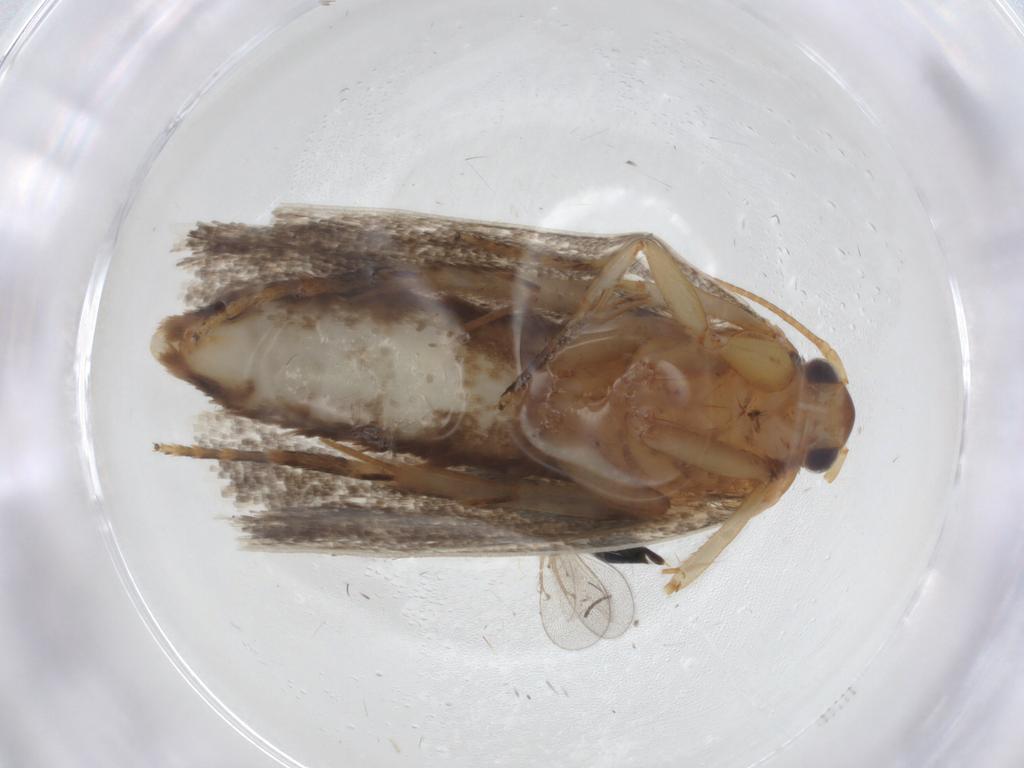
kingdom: Animalia
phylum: Arthropoda
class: Insecta
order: Lepidoptera
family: Oecophoridae
